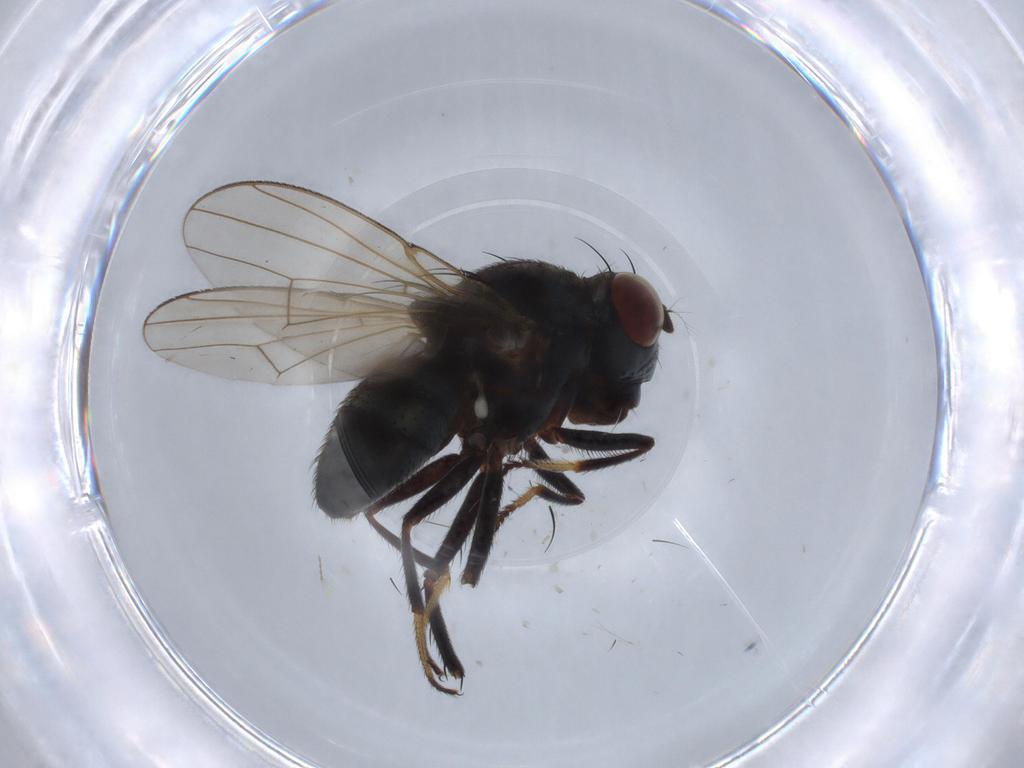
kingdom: Animalia
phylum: Arthropoda
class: Insecta
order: Diptera
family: Ephydridae
